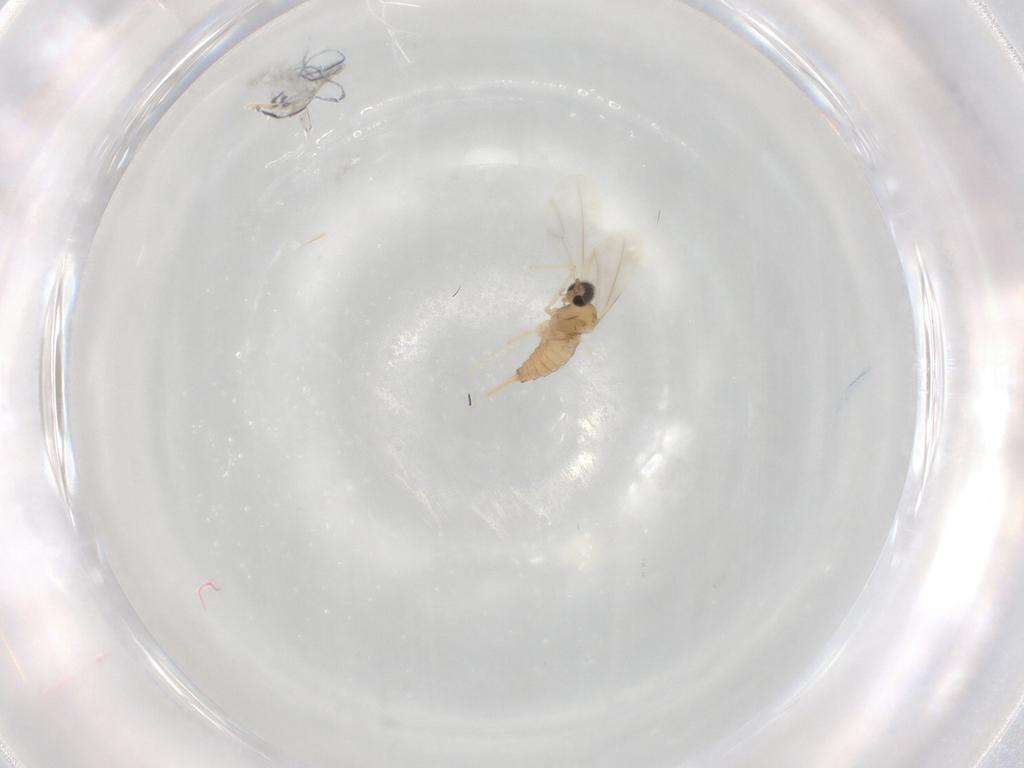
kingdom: Animalia
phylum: Arthropoda
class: Insecta
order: Diptera
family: Cecidomyiidae
